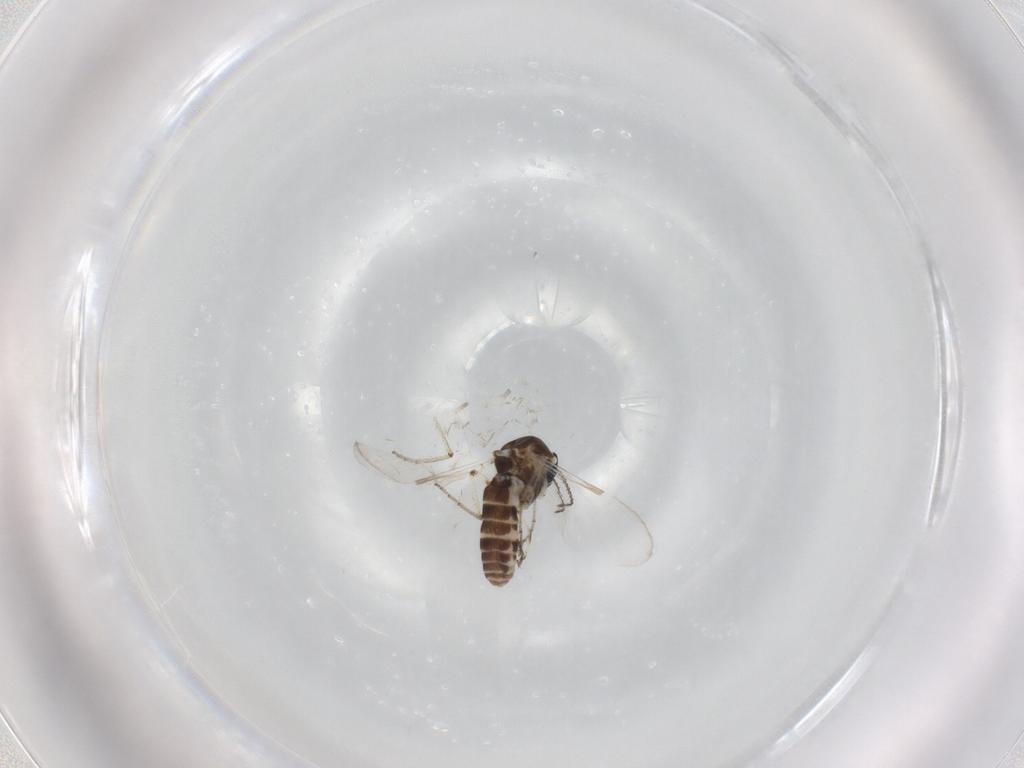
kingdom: Animalia
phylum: Arthropoda
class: Insecta
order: Diptera
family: Ceratopogonidae
